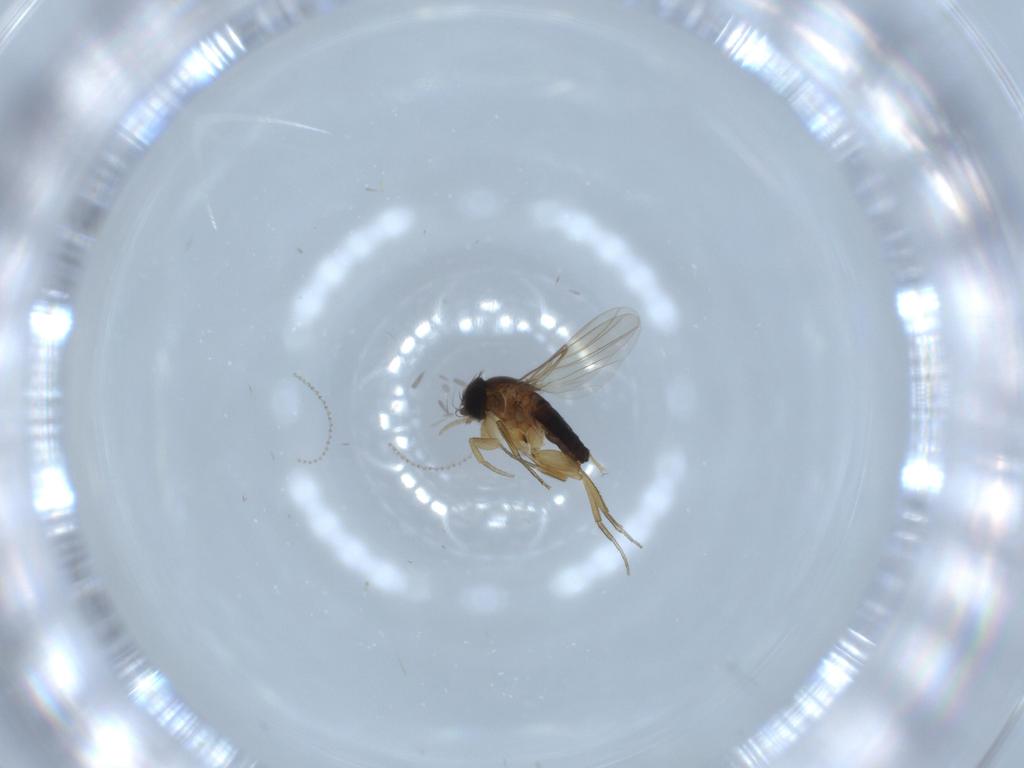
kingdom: Animalia
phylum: Arthropoda
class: Insecta
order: Diptera
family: Phoridae
